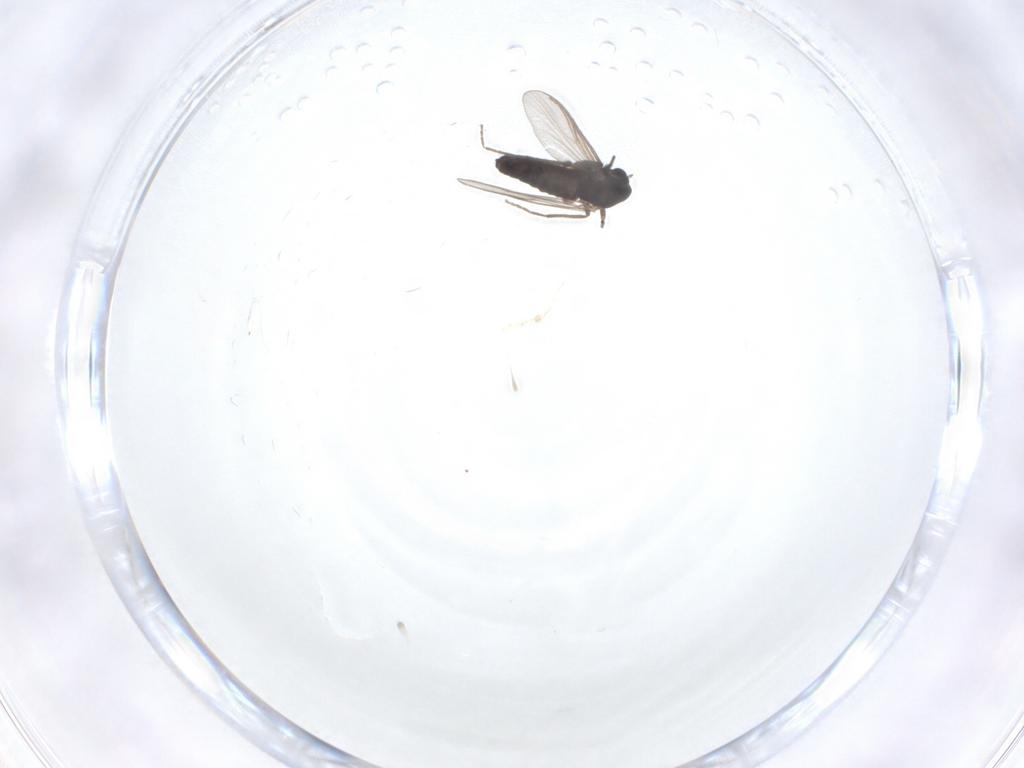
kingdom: Animalia
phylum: Arthropoda
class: Insecta
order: Diptera
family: Chironomidae
